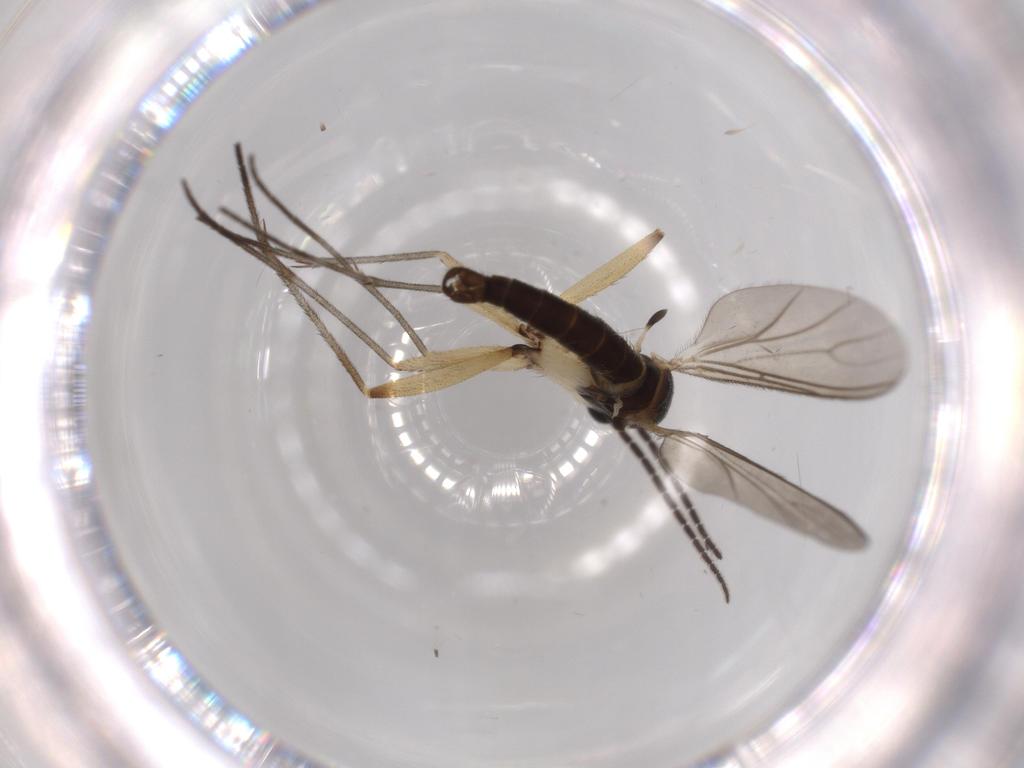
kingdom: Animalia
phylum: Arthropoda
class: Insecta
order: Diptera
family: Sciaridae
